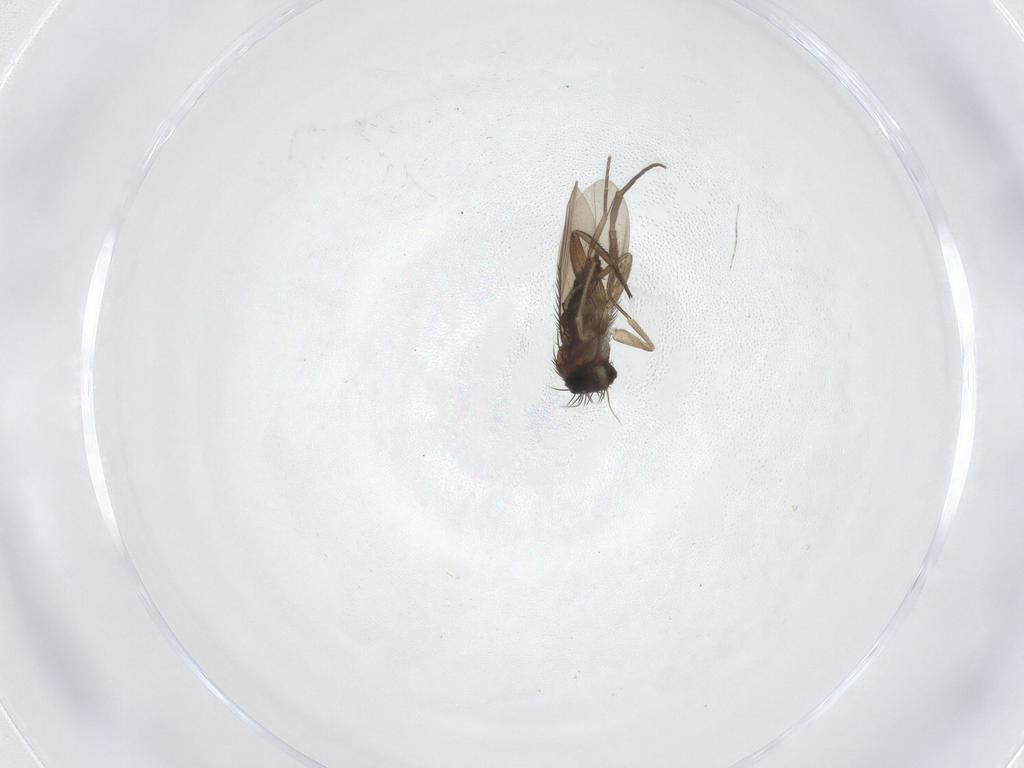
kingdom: Animalia
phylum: Arthropoda
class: Insecta
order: Diptera
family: Phoridae
